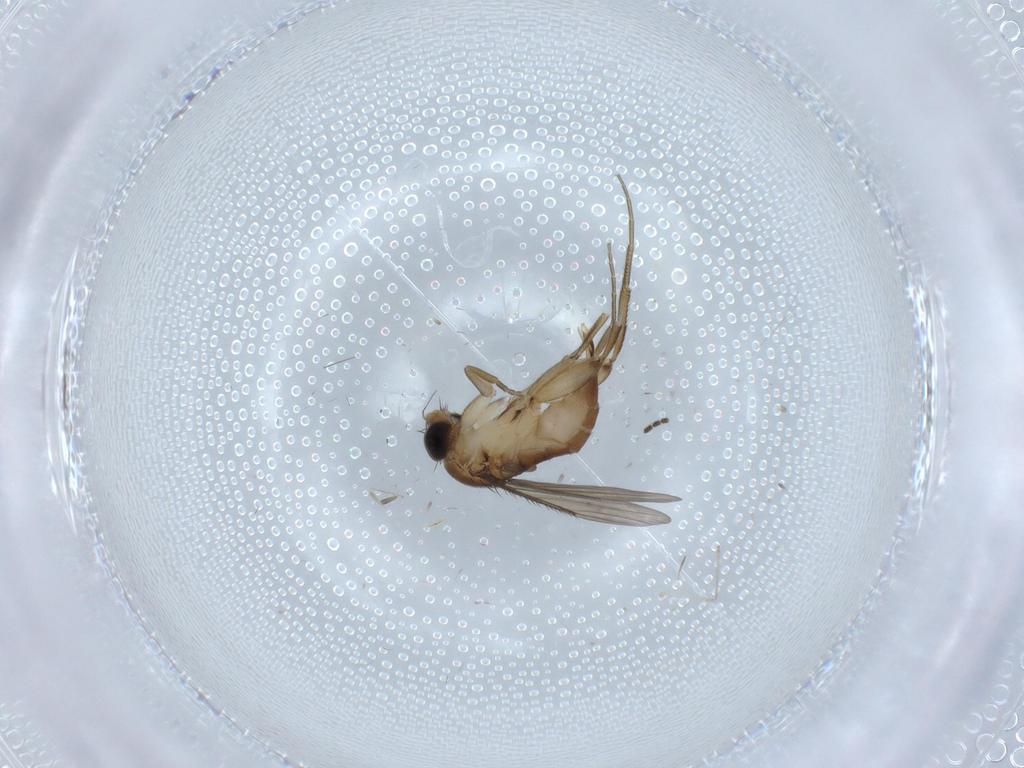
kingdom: Animalia
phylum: Arthropoda
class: Insecta
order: Diptera
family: Phoridae
